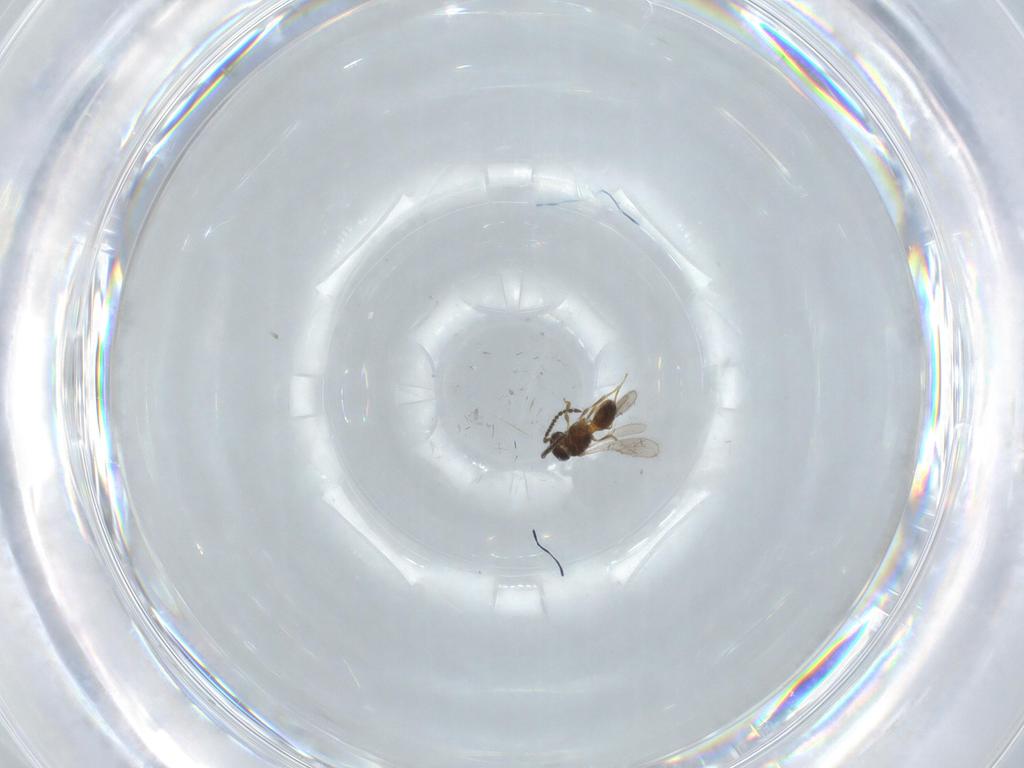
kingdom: Animalia
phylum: Arthropoda
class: Insecta
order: Hymenoptera
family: Scelionidae
